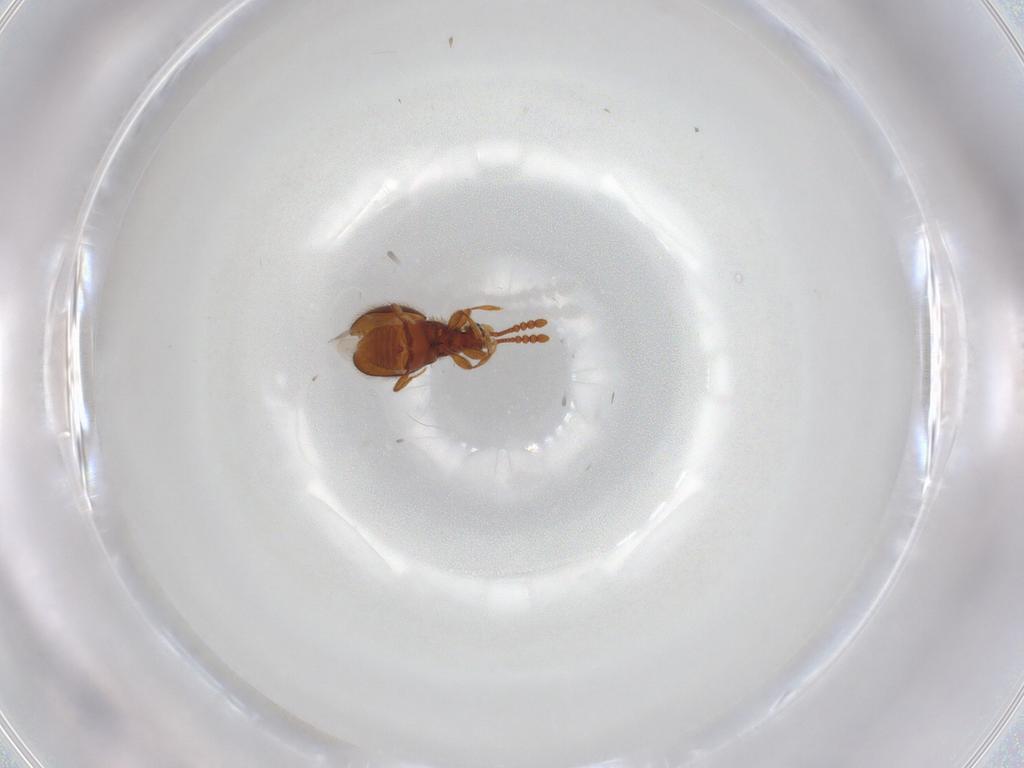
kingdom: Animalia
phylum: Arthropoda
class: Insecta
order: Coleoptera
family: Staphylinidae
